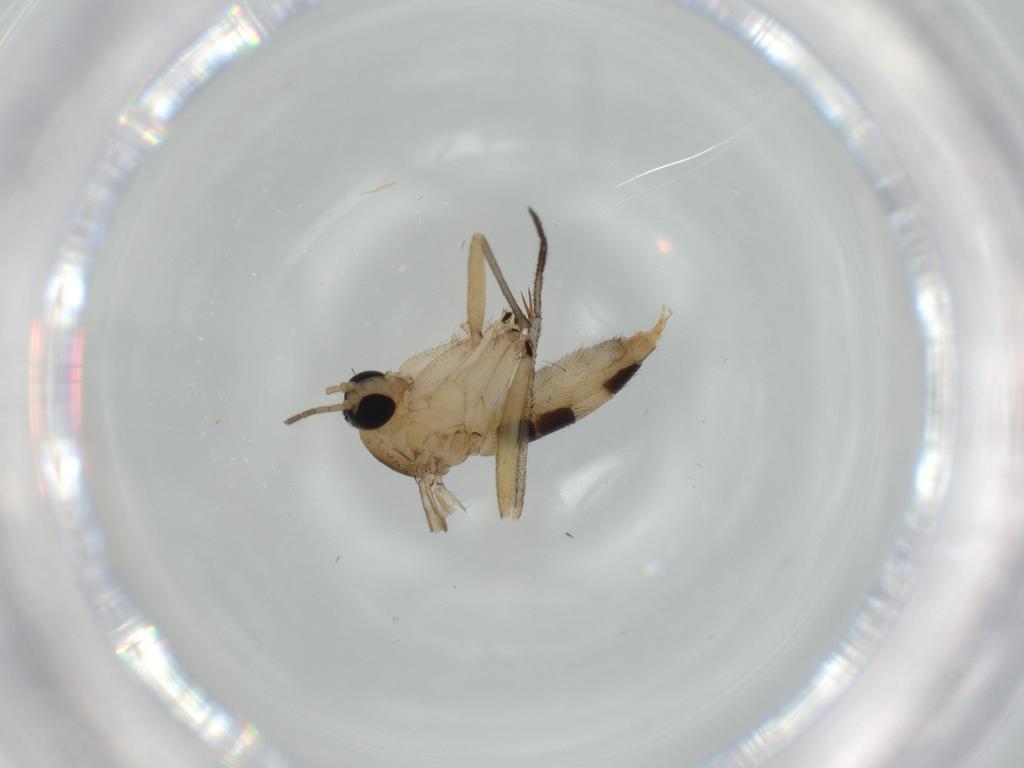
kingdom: Animalia
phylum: Arthropoda
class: Insecta
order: Diptera
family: Sciaridae
